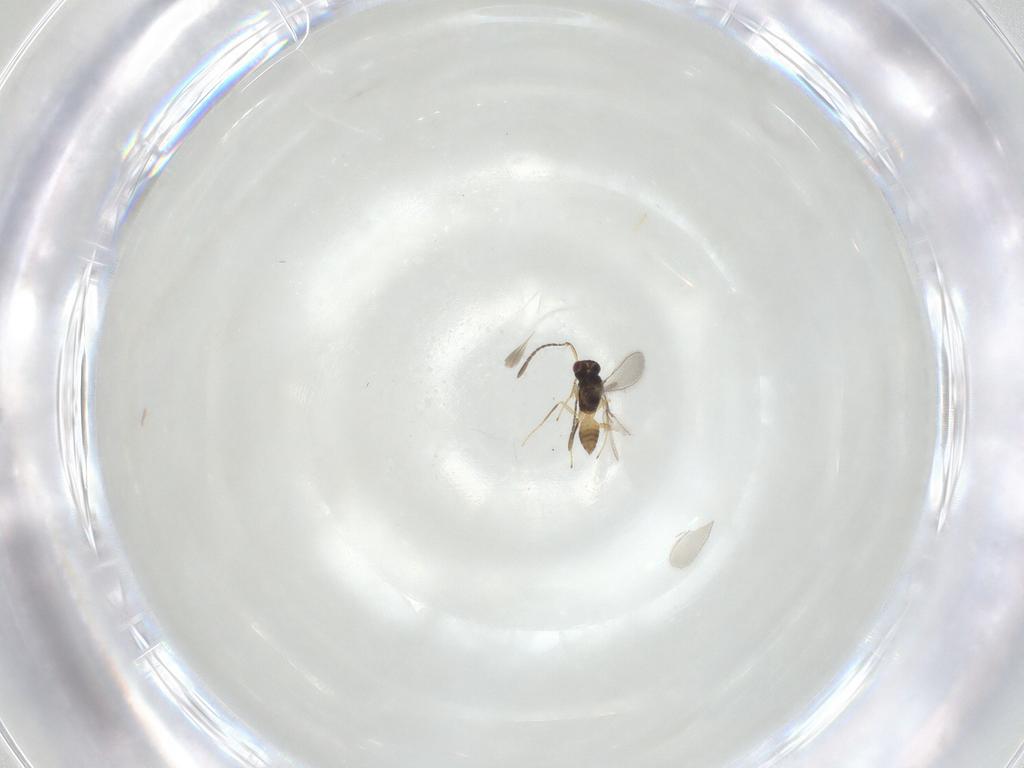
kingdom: Animalia
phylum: Arthropoda
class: Insecta
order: Hymenoptera
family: Mymaridae
